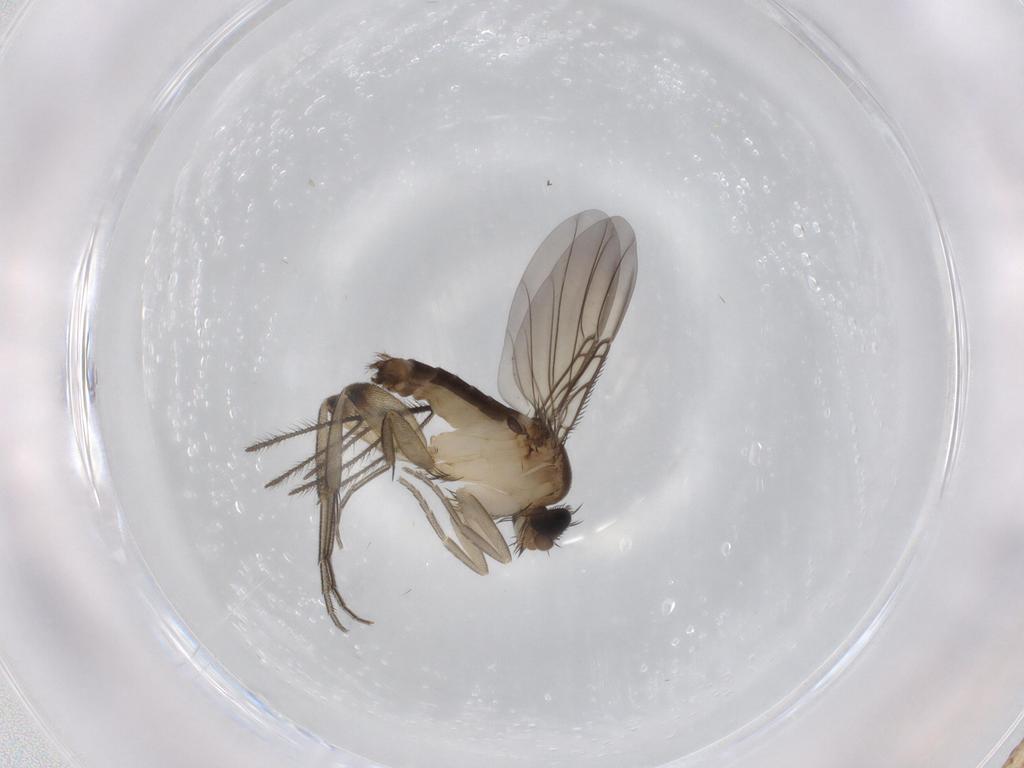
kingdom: Animalia
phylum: Arthropoda
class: Insecta
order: Diptera
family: Phoridae
